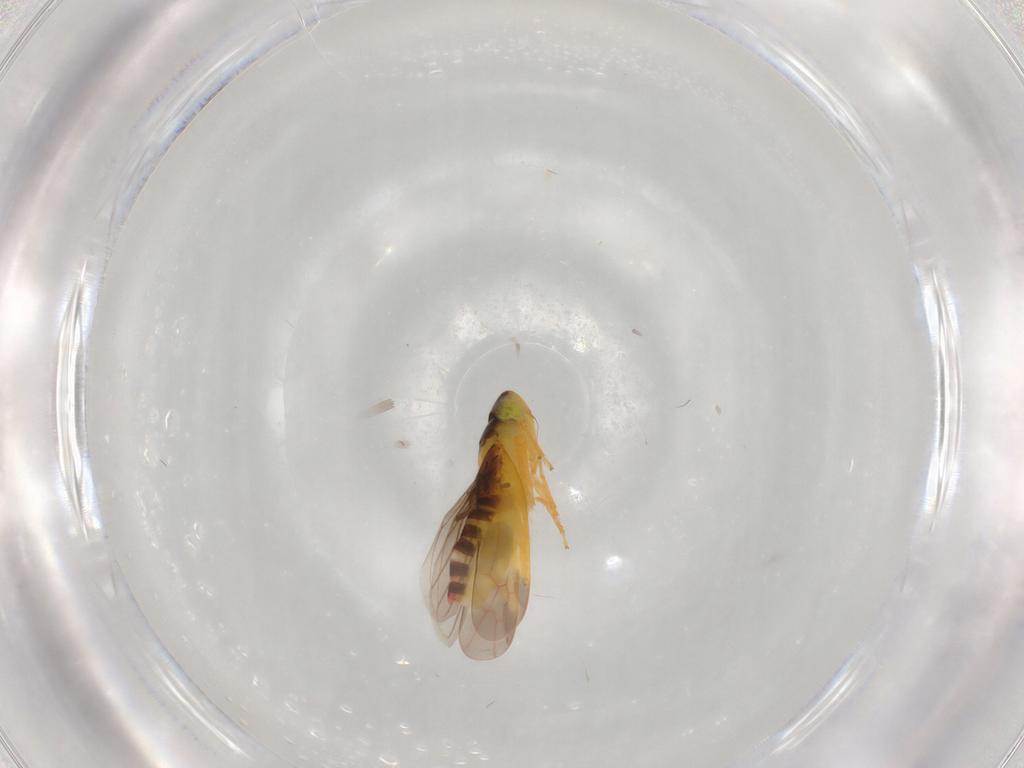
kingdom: Animalia
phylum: Arthropoda
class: Insecta
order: Hemiptera
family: Cicadellidae
